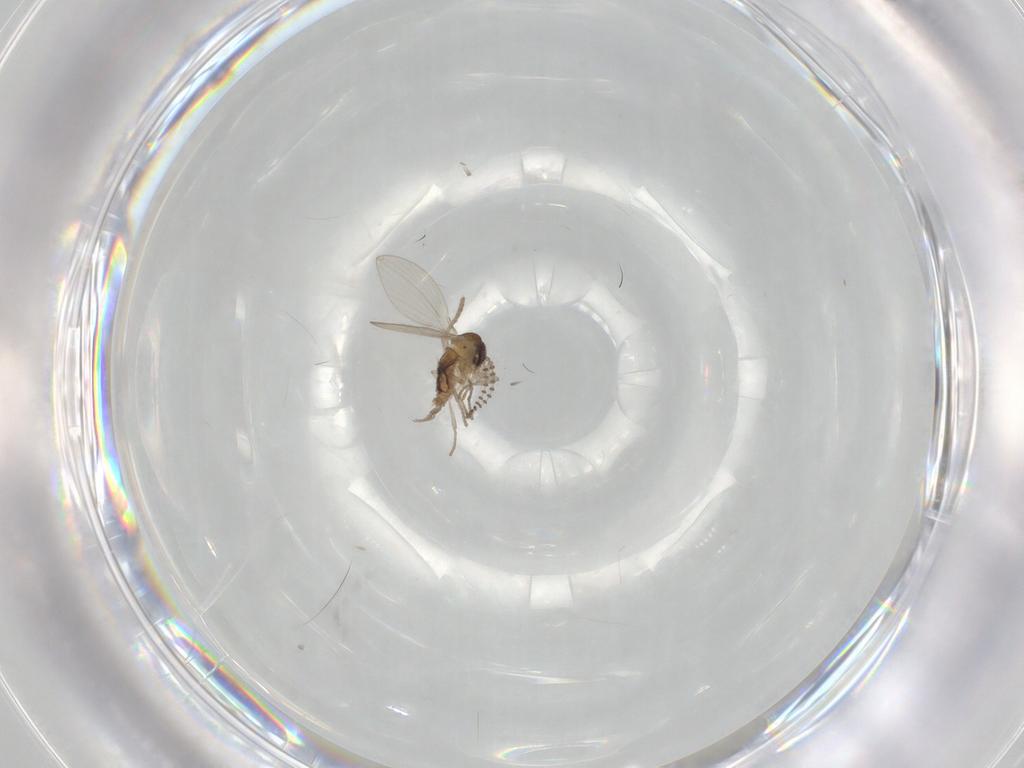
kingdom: Animalia
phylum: Arthropoda
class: Insecta
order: Diptera
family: Psychodidae
